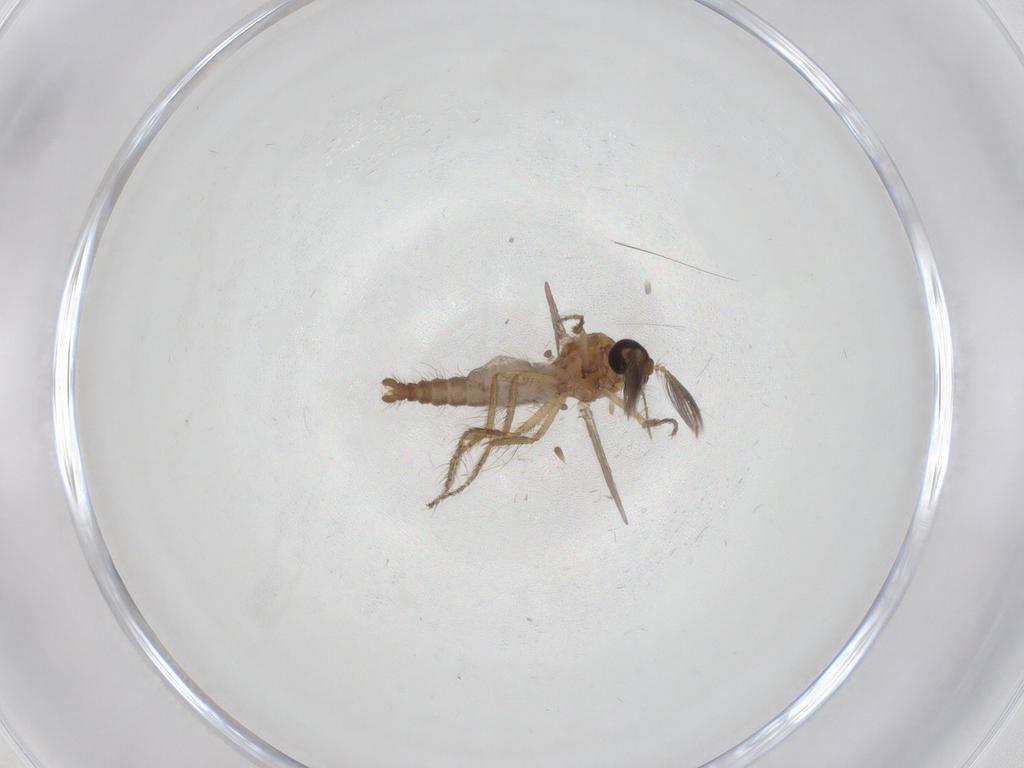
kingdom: Animalia
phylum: Arthropoda
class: Insecta
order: Diptera
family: Ceratopogonidae
